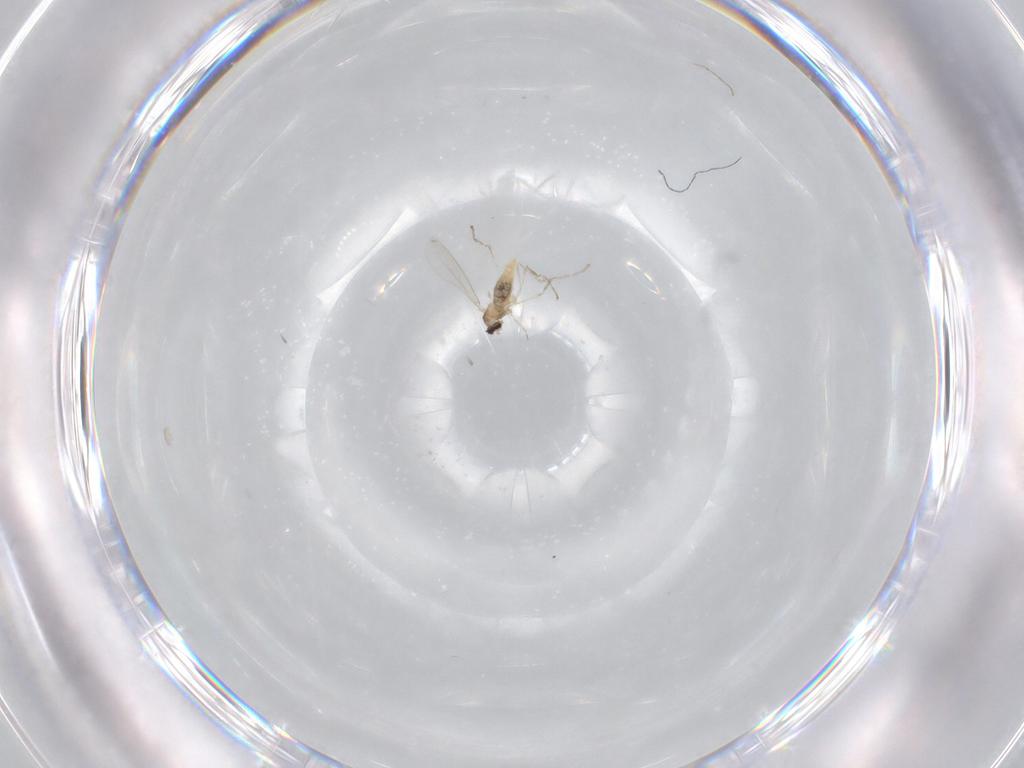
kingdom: Animalia
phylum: Arthropoda
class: Insecta
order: Diptera
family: Cecidomyiidae
